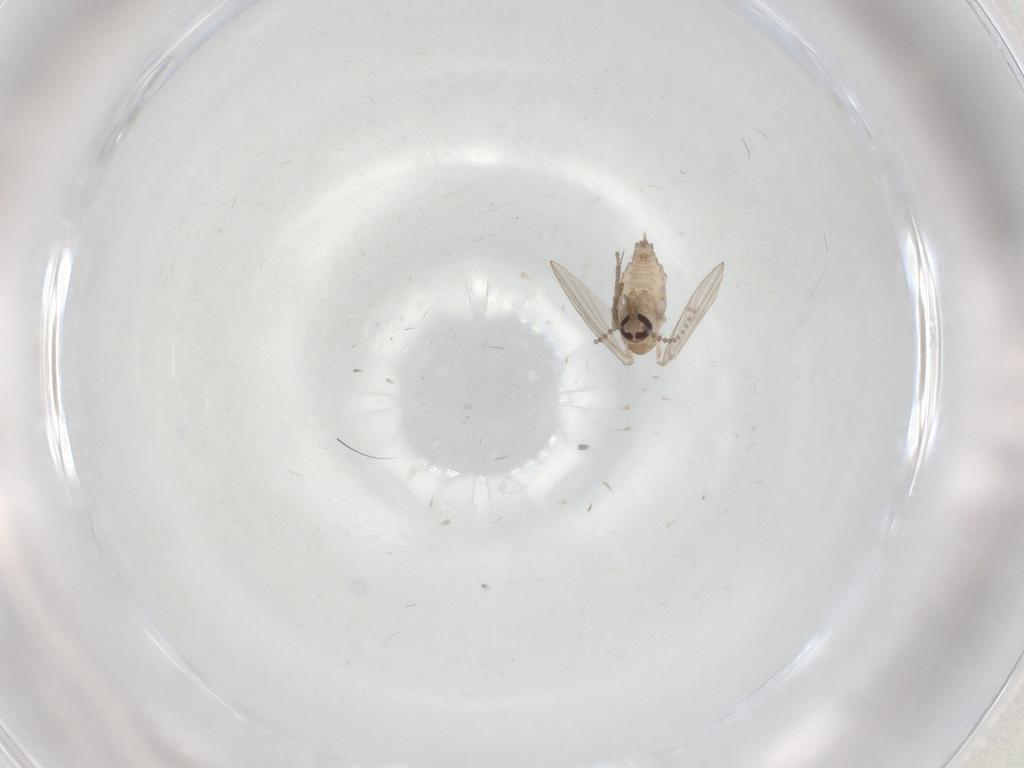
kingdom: Animalia
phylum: Arthropoda
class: Insecta
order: Diptera
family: Psychodidae
